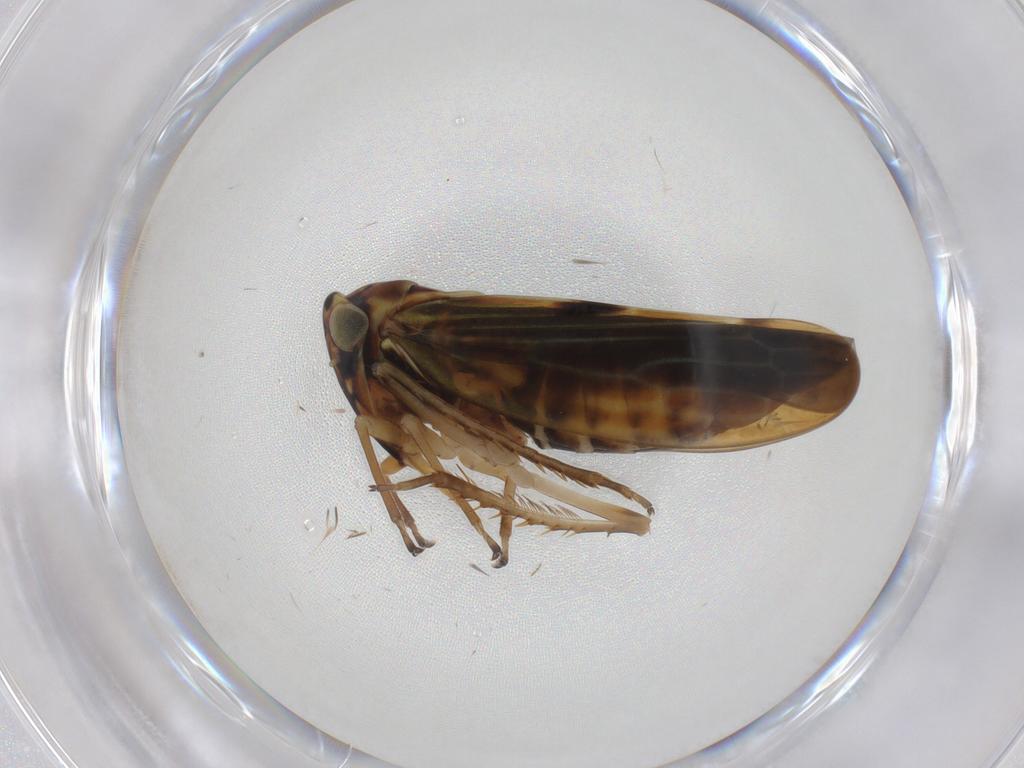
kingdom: Animalia
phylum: Arthropoda
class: Insecta
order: Hemiptera
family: Cicadellidae
